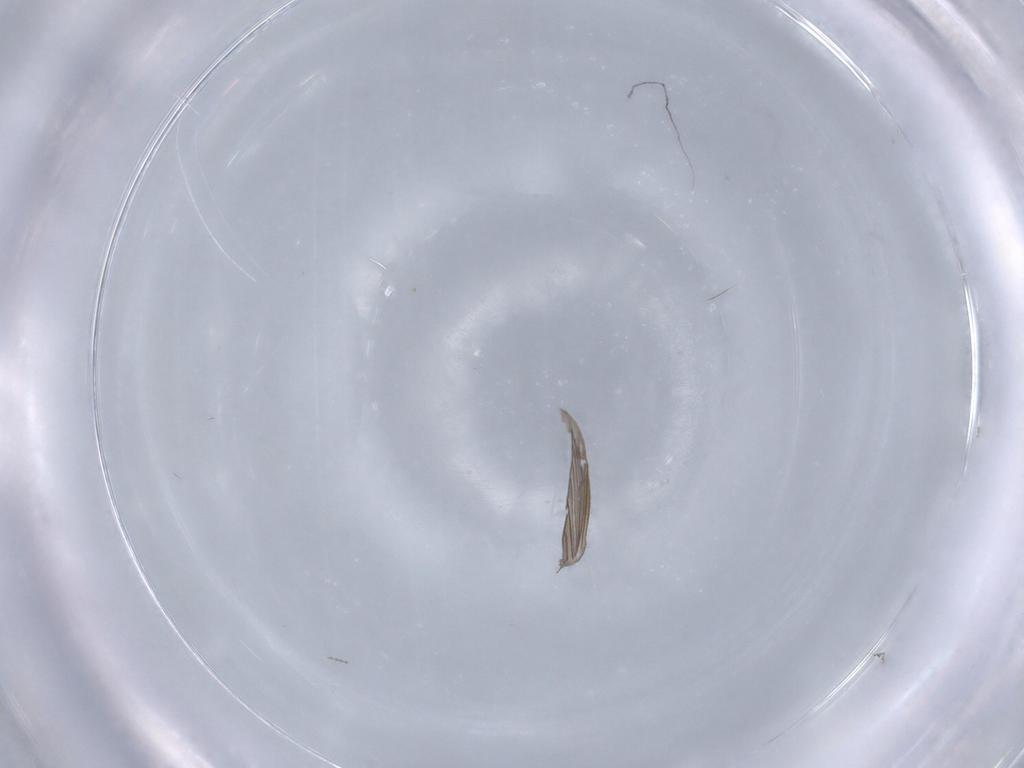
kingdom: Animalia
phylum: Arthropoda
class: Insecta
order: Diptera
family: Psychodidae
